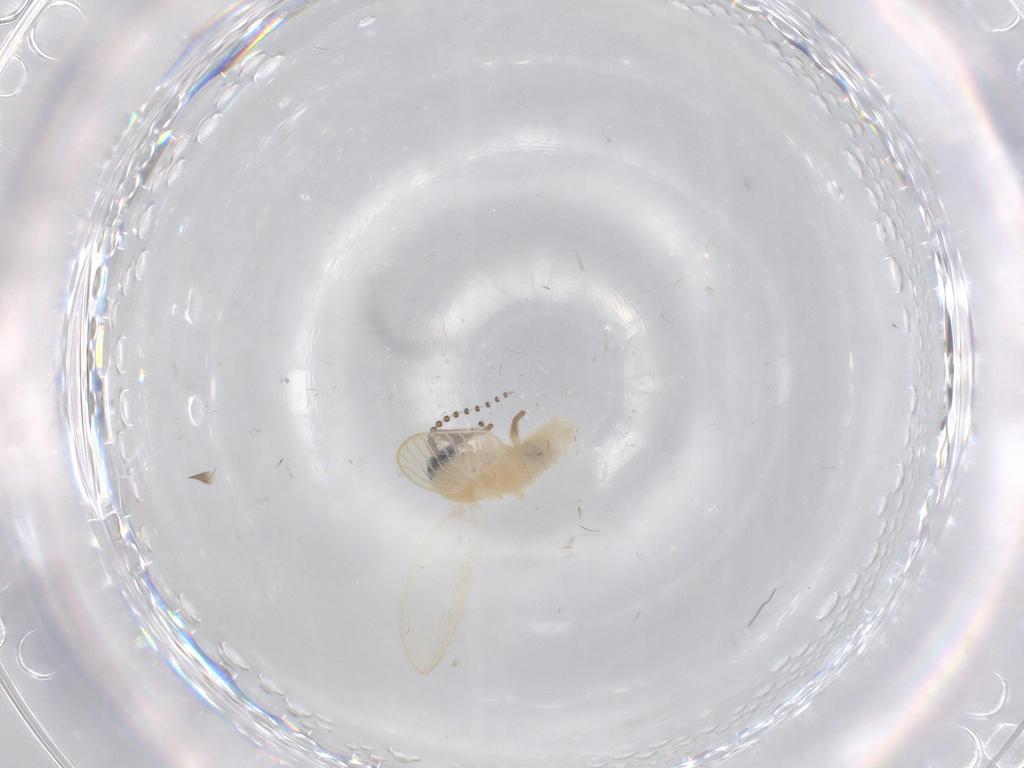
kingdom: Animalia
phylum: Arthropoda
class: Insecta
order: Diptera
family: Psychodidae
